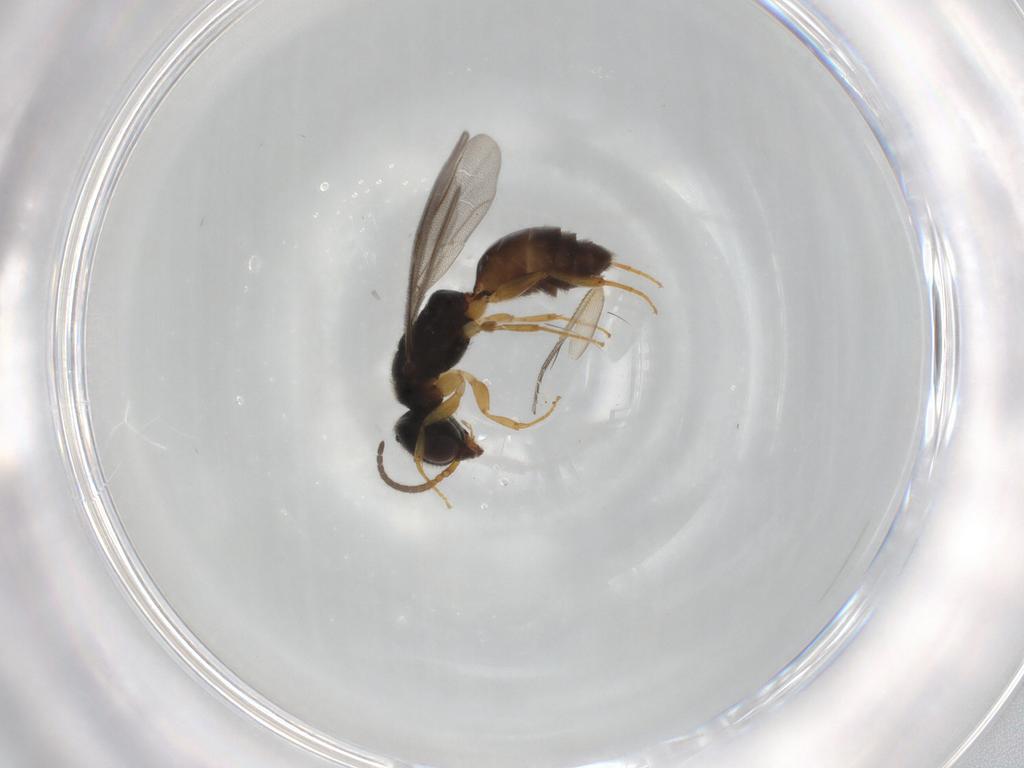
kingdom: Animalia
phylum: Arthropoda
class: Insecta
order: Hymenoptera
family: Bethylidae
